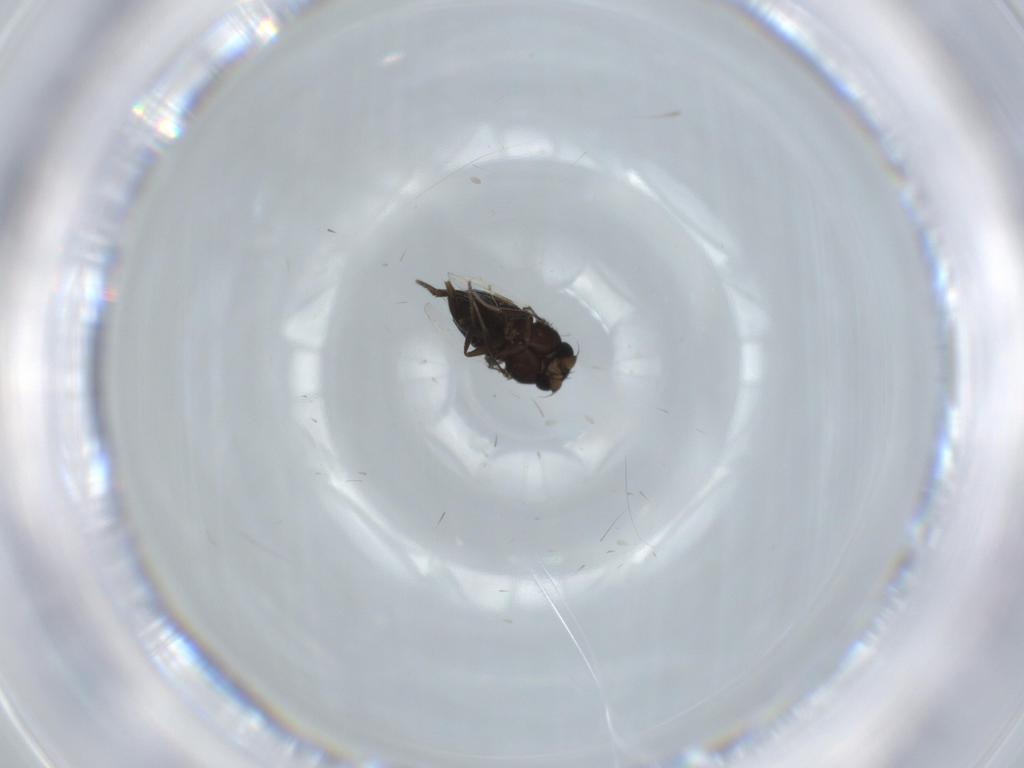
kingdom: Animalia
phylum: Arthropoda
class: Insecta
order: Diptera
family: Phoridae
